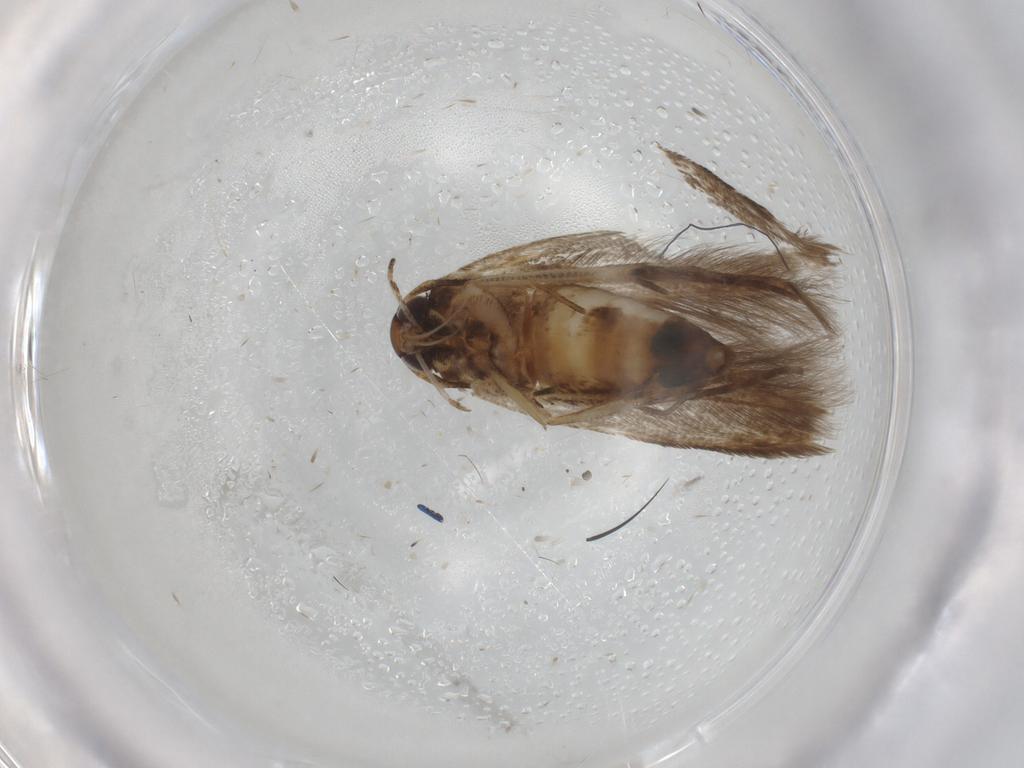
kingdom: Animalia
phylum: Arthropoda
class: Insecta
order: Lepidoptera
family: Cosmopterigidae
